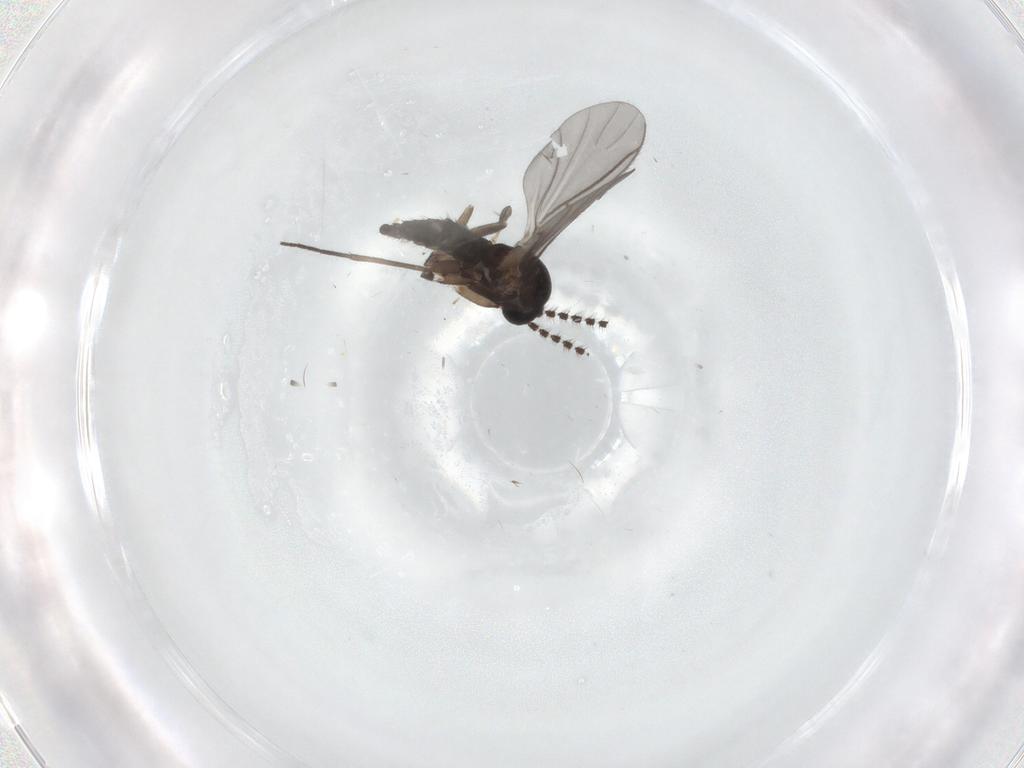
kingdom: Animalia
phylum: Arthropoda
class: Insecta
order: Diptera
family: Sciaridae
